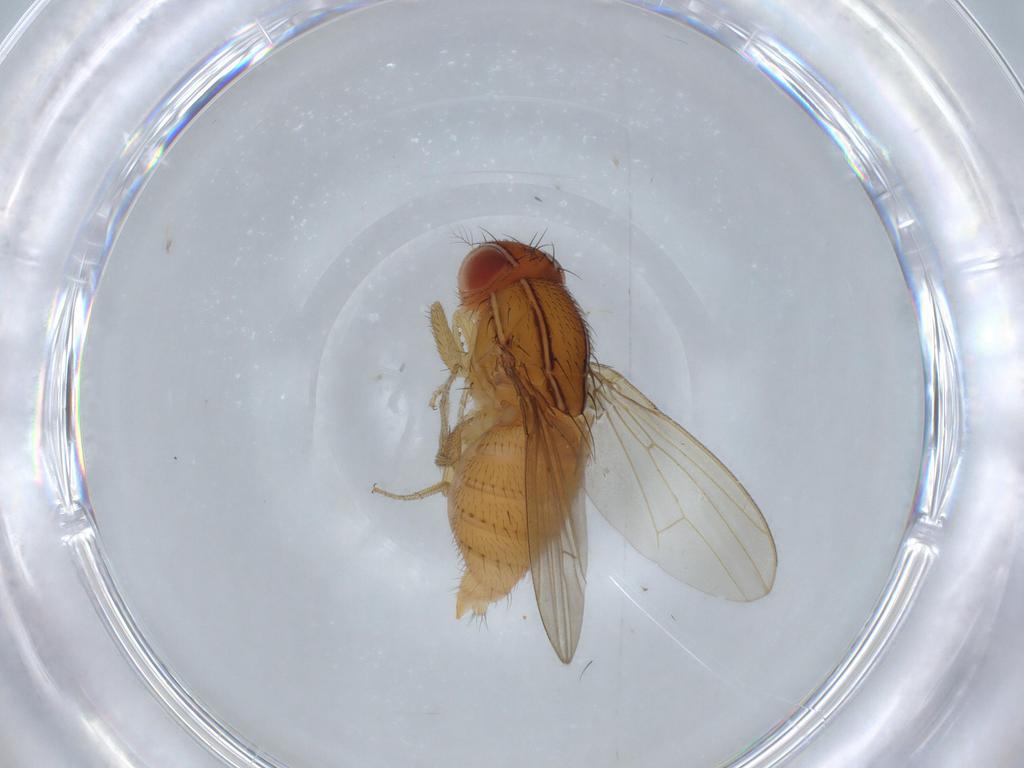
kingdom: Animalia
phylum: Arthropoda
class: Insecta
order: Diptera
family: Drosophilidae
